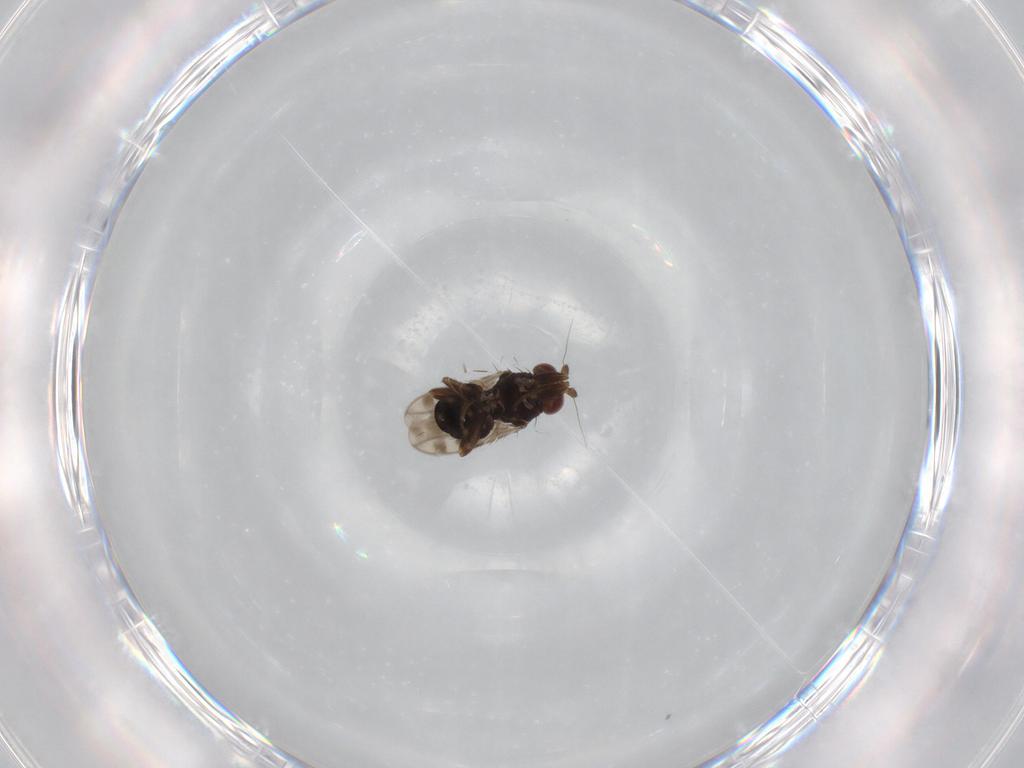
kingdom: Animalia
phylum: Arthropoda
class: Insecta
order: Diptera
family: Sphaeroceridae
